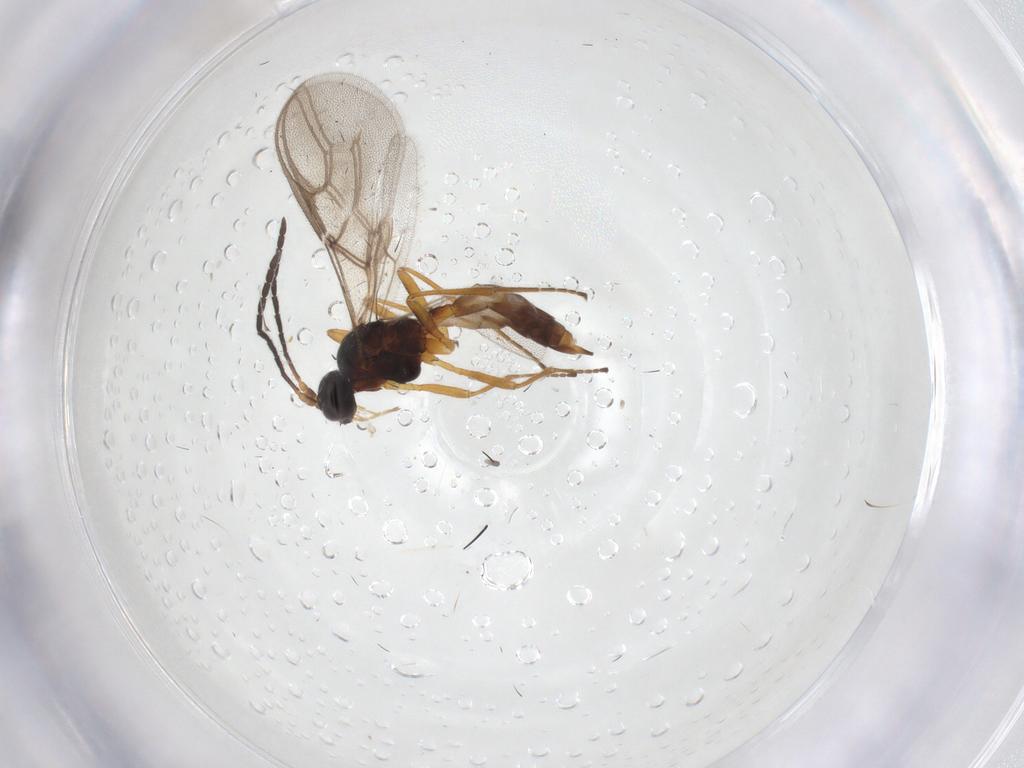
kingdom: Animalia
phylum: Arthropoda
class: Insecta
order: Hymenoptera
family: Braconidae
